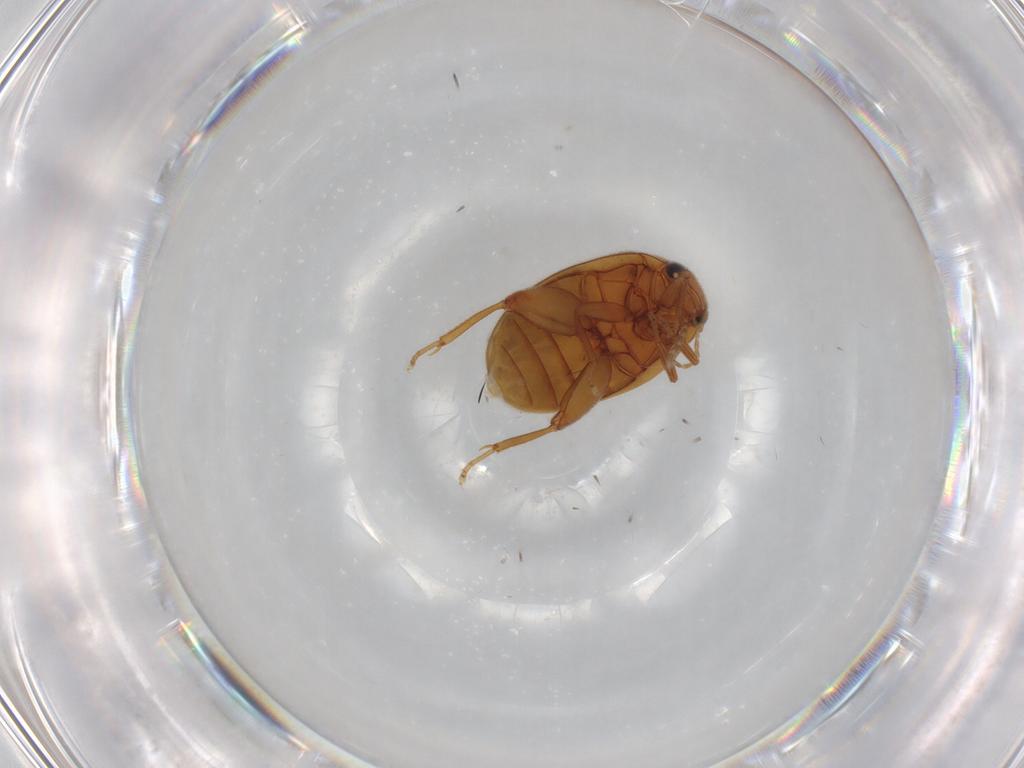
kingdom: Animalia
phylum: Arthropoda
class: Insecta
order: Coleoptera
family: Scirtidae
